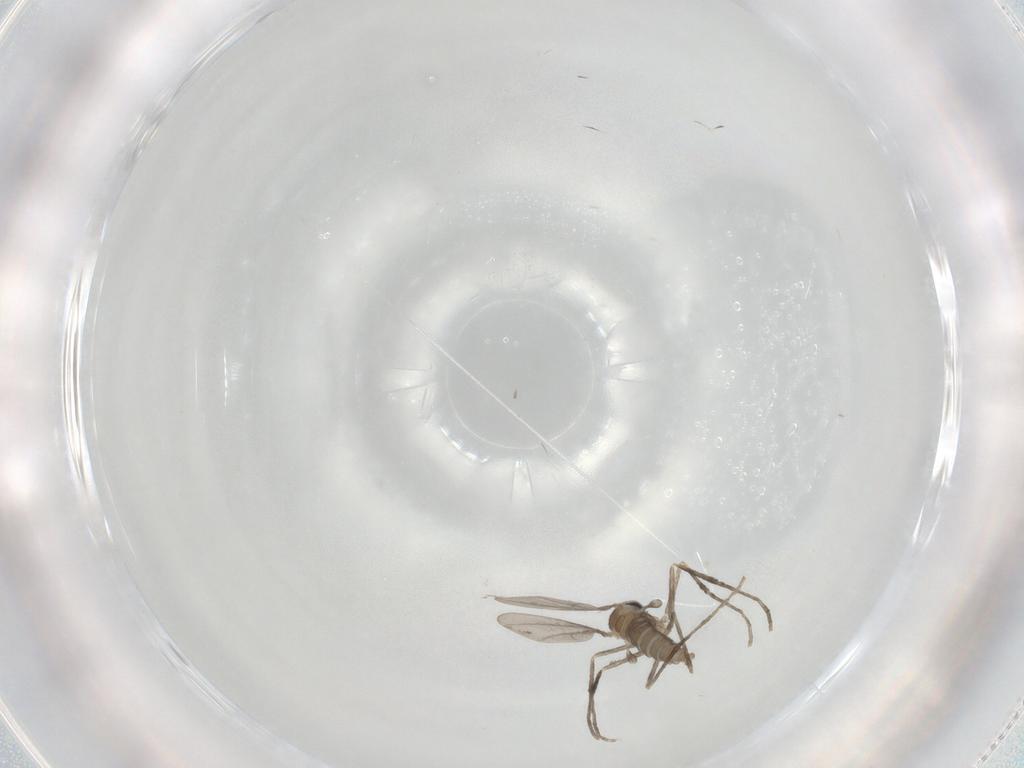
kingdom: Animalia
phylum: Arthropoda
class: Insecta
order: Diptera
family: Cecidomyiidae
